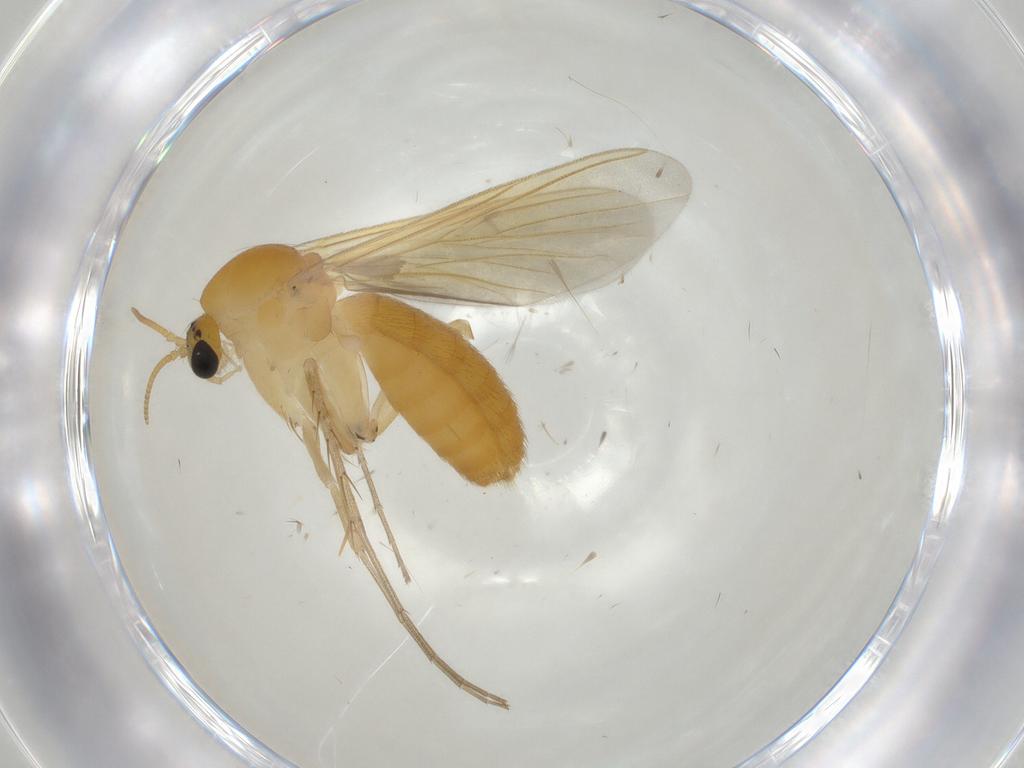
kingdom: Animalia
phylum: Arthropoda
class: Insecta
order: Diptera
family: Mycetophilidae
